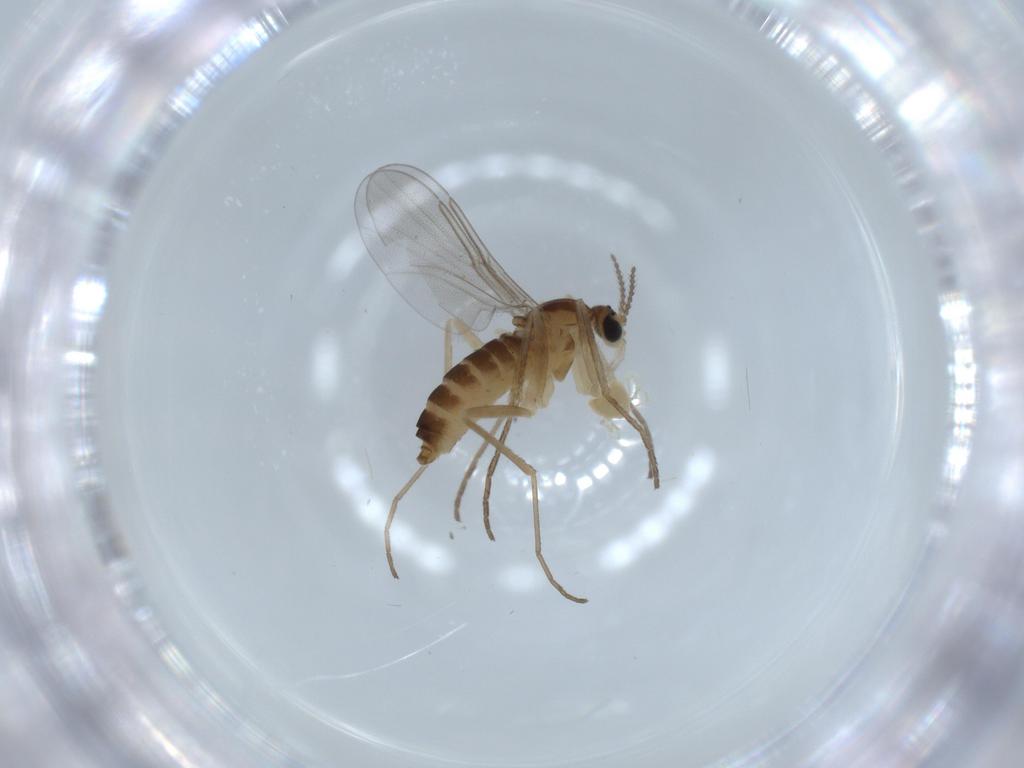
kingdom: Animalia
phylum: Arthropoda
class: Insecta
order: Diptera
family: Cecidomyiidae
